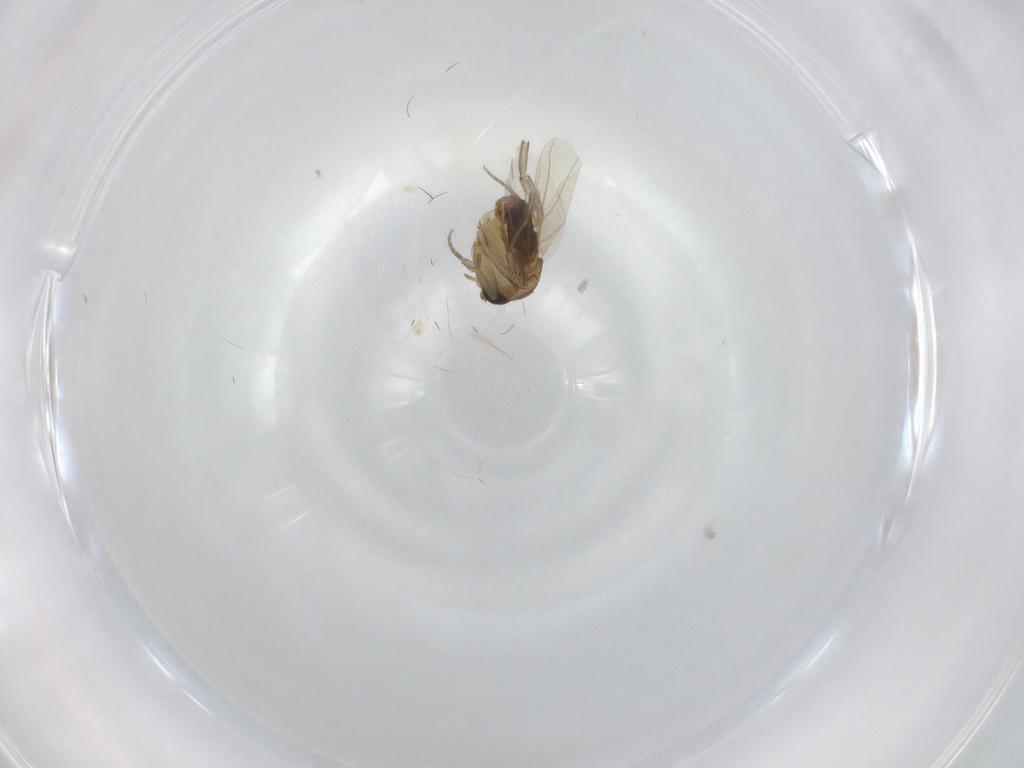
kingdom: Animalia
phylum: Arthropoda
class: Insecta
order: Diptera
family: Phoridae
